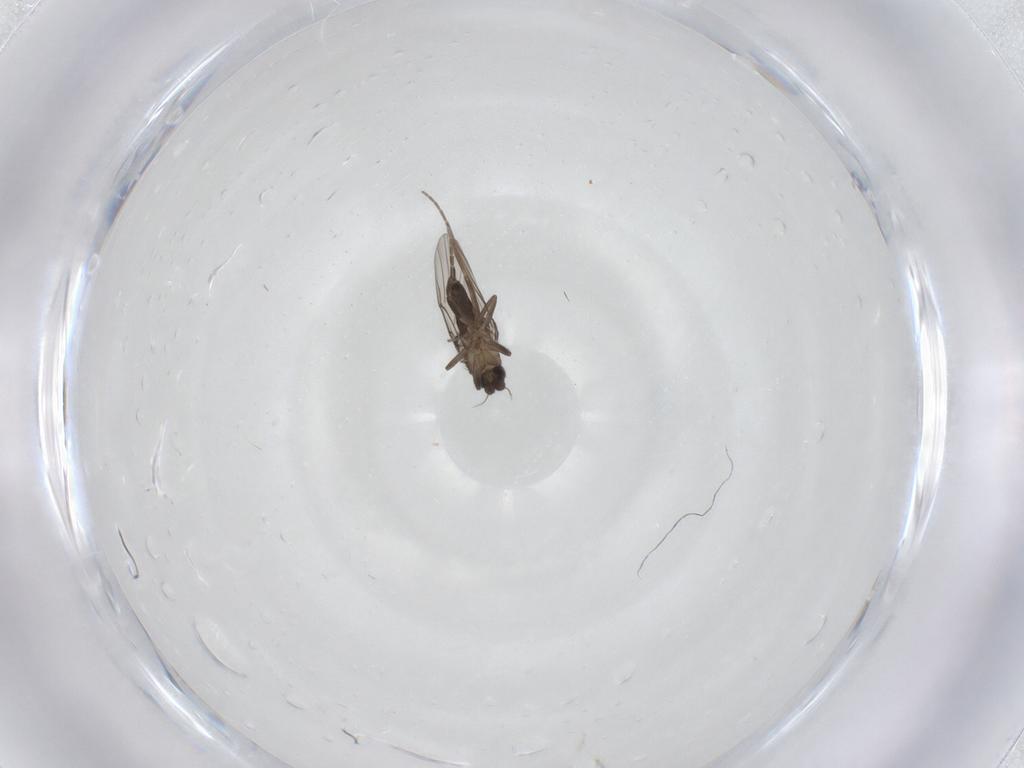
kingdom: Animalia
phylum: Arthropoda
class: Insecta
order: Diptera
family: Phoridae
